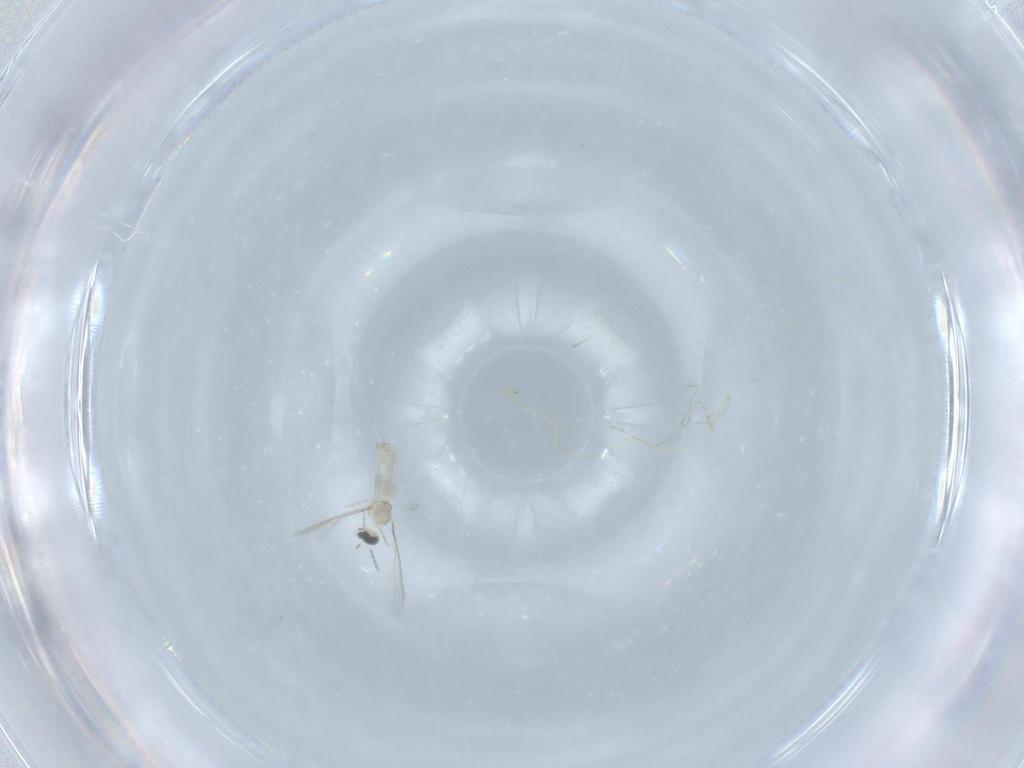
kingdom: Animalia
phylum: Arthropoda
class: Insecta
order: Diptera
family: Cecidomyiidae
